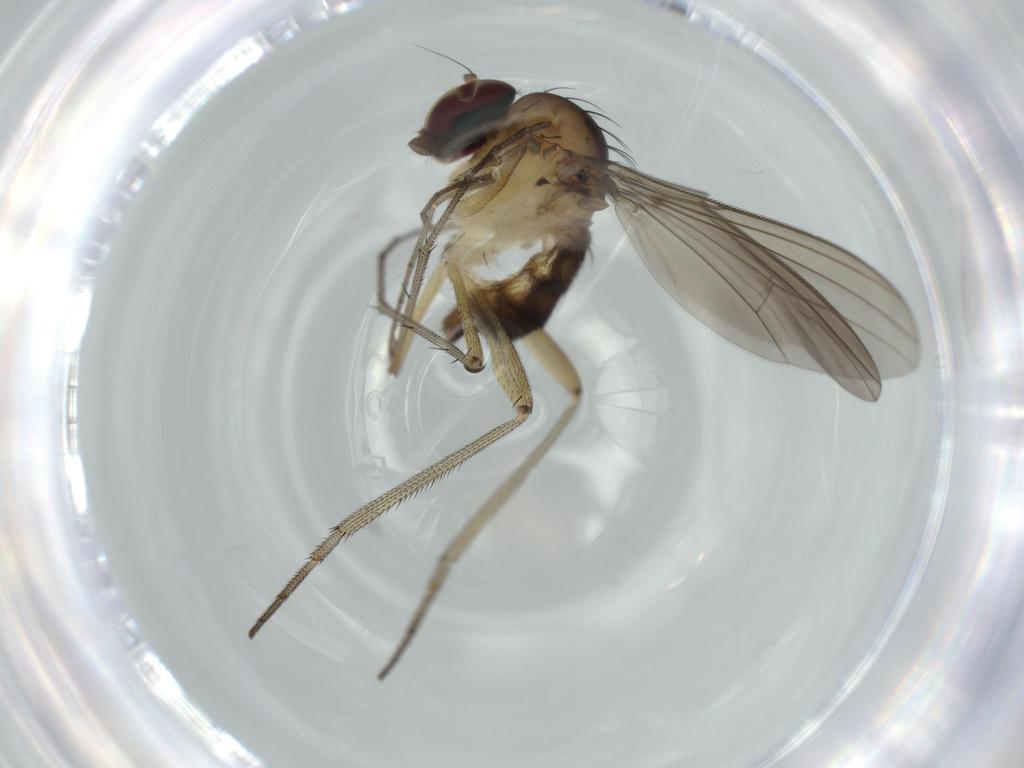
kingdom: Animalia
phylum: Arthropoda
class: Insecta
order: Diptera
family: Dolichopodidae
